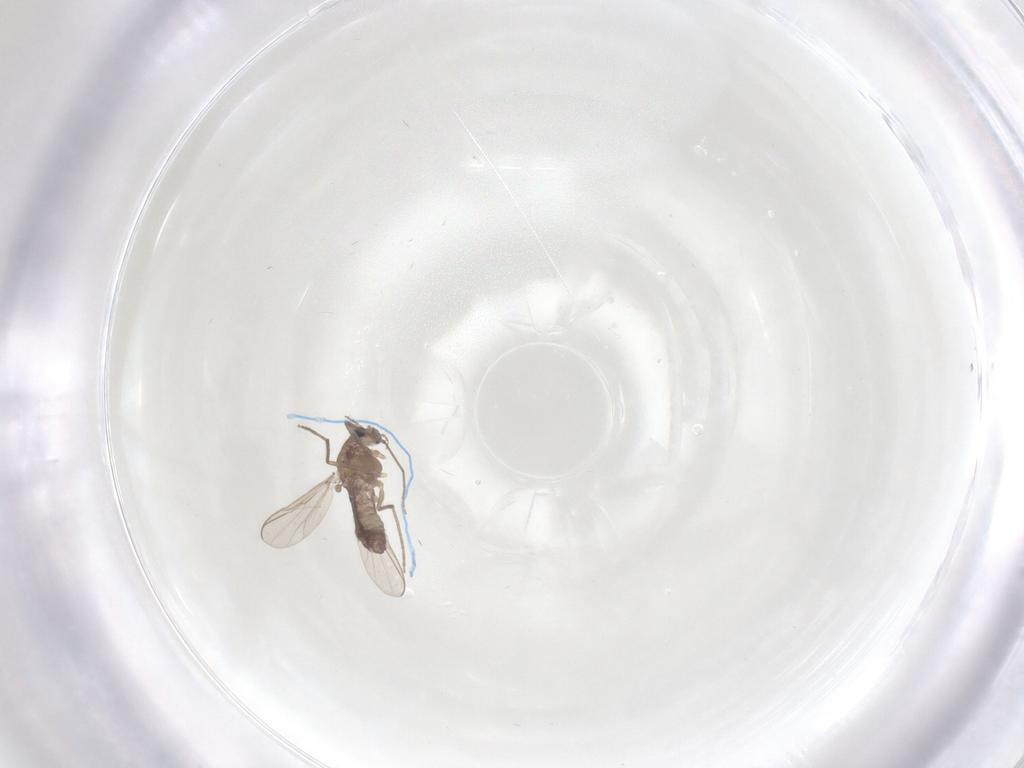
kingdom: Animalia
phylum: Arthropoda
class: Insecta
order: Diptera
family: Chironomidae
